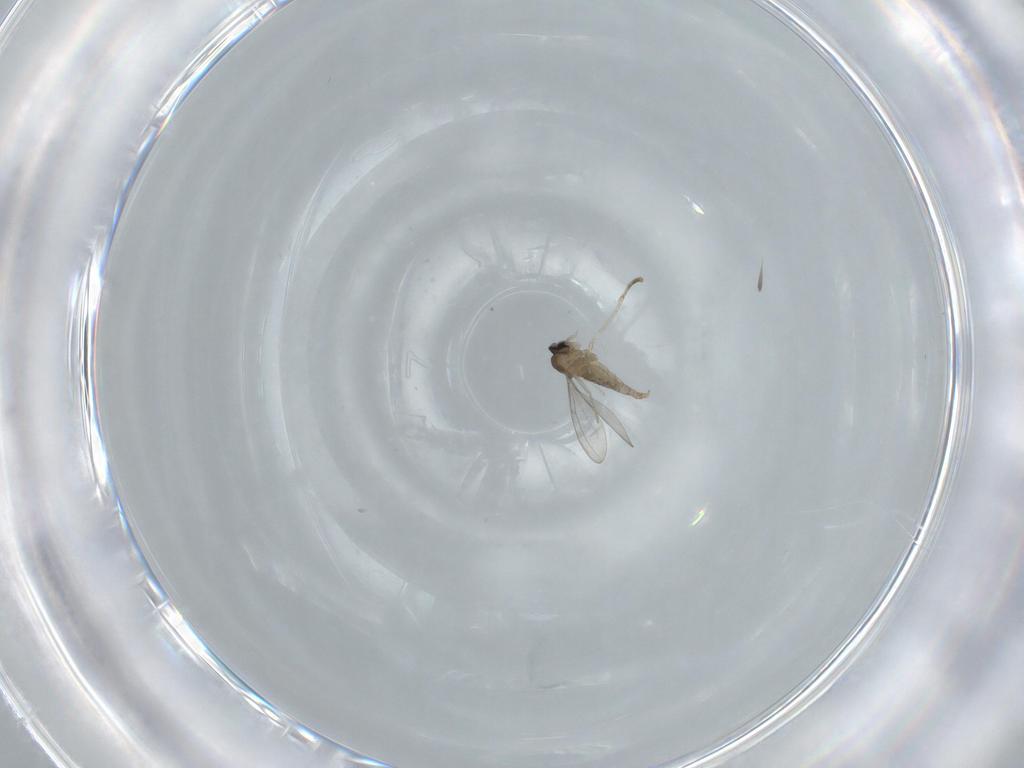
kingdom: Animalia
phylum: Arthropoda
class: Insecta
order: Diptera
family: Cecidomyiidae
